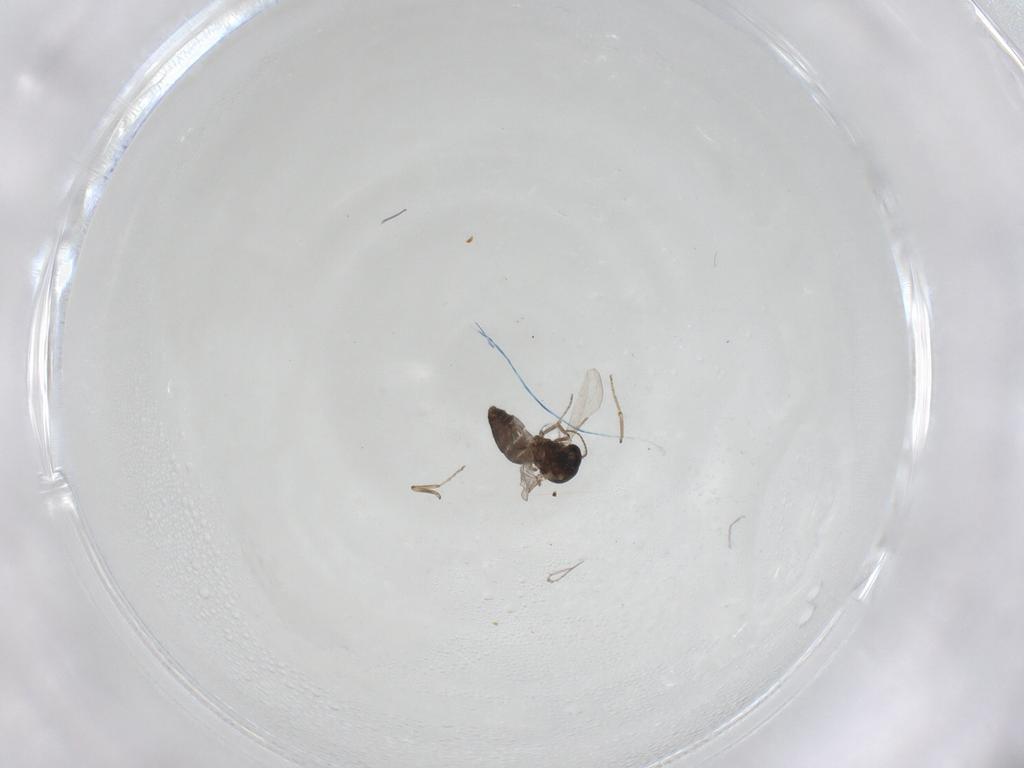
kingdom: Animalia
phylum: Arthropoda
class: Insecta
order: Diptera
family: Ceratopogonidae
